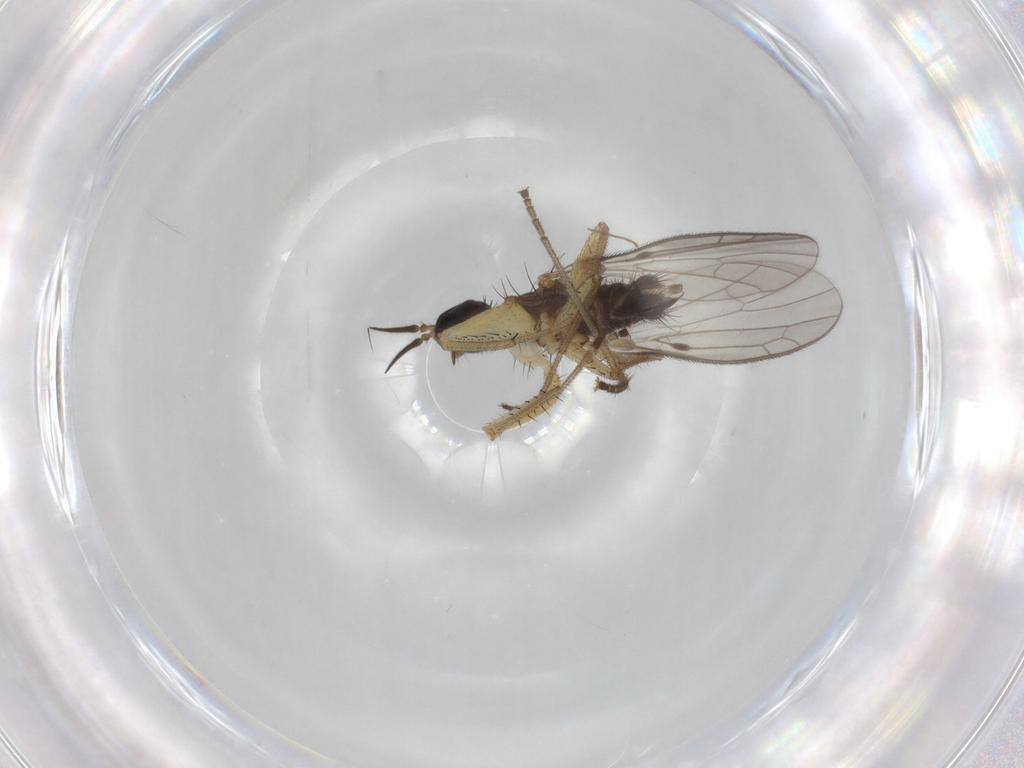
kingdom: Animalia
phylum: Arthropoda
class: Insecta
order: Diptera
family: Chironomidae
